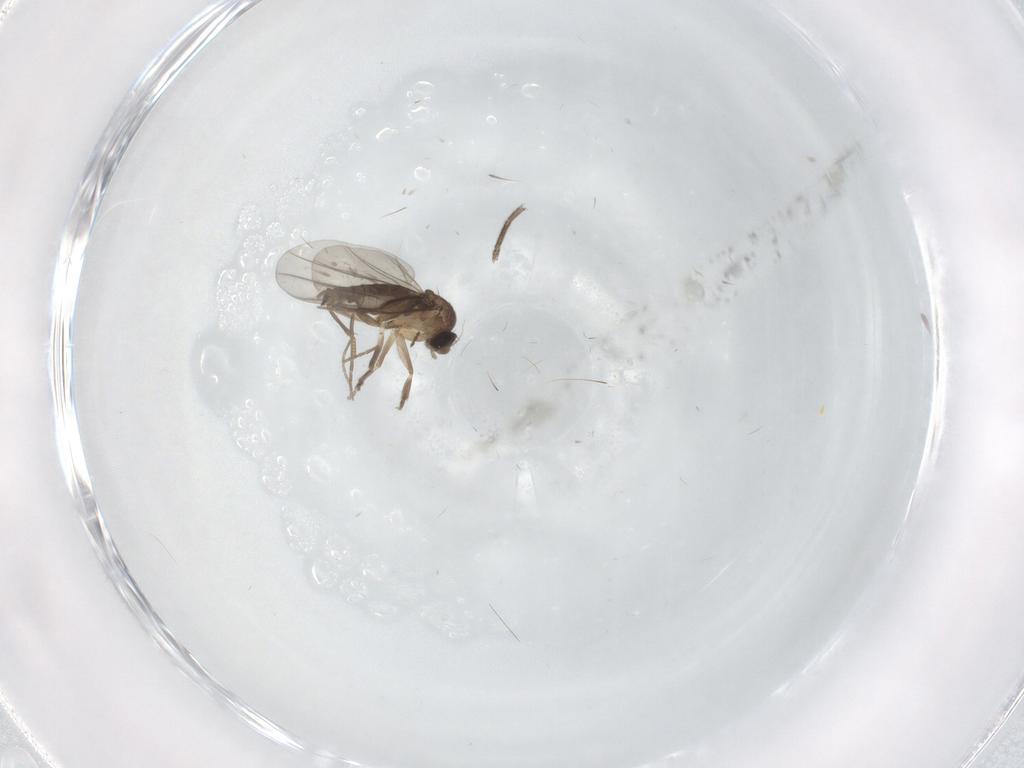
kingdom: Animalia
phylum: Arthropoda
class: Insecta
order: Diptera
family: Phoridae
